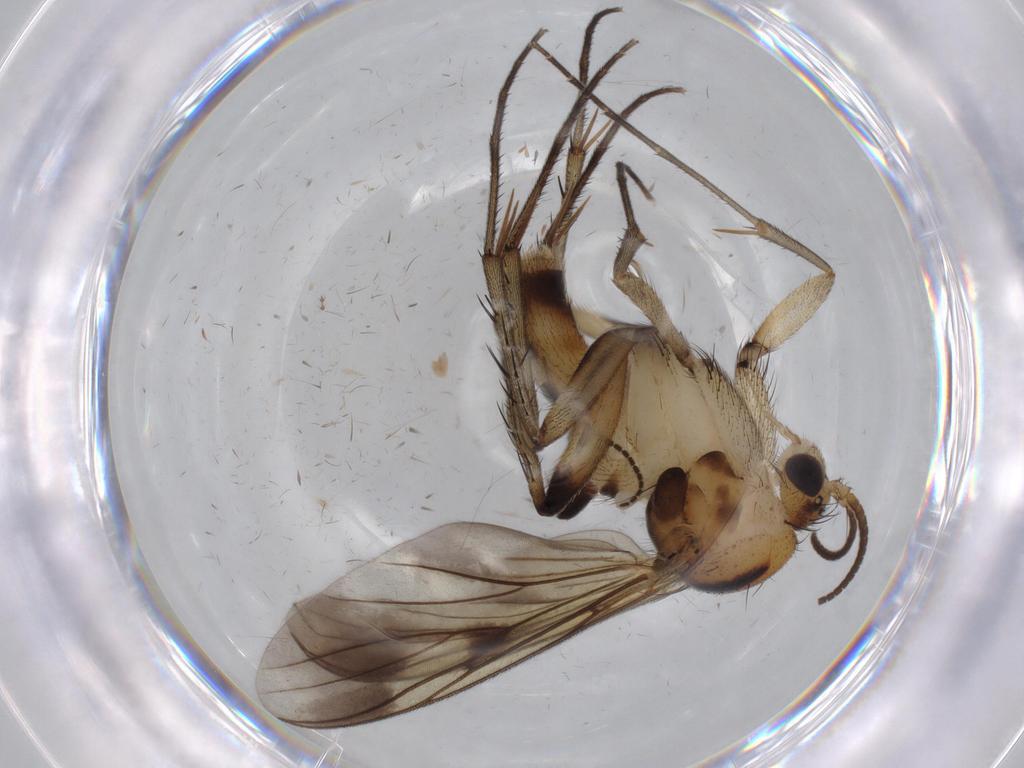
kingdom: Animalia
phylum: Arthropoda
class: Insecta
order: Diptera
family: Mycetophilidae
